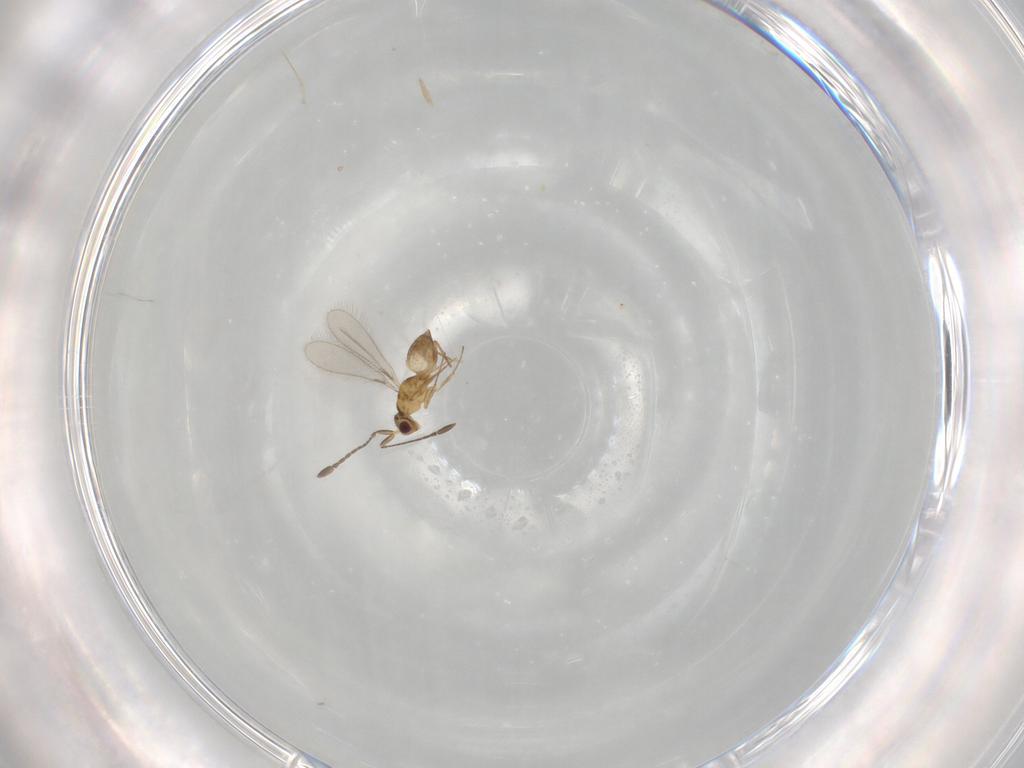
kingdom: Animalia
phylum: Arthropoda
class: Insecta
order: Hymenoptera
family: Mymaridae
